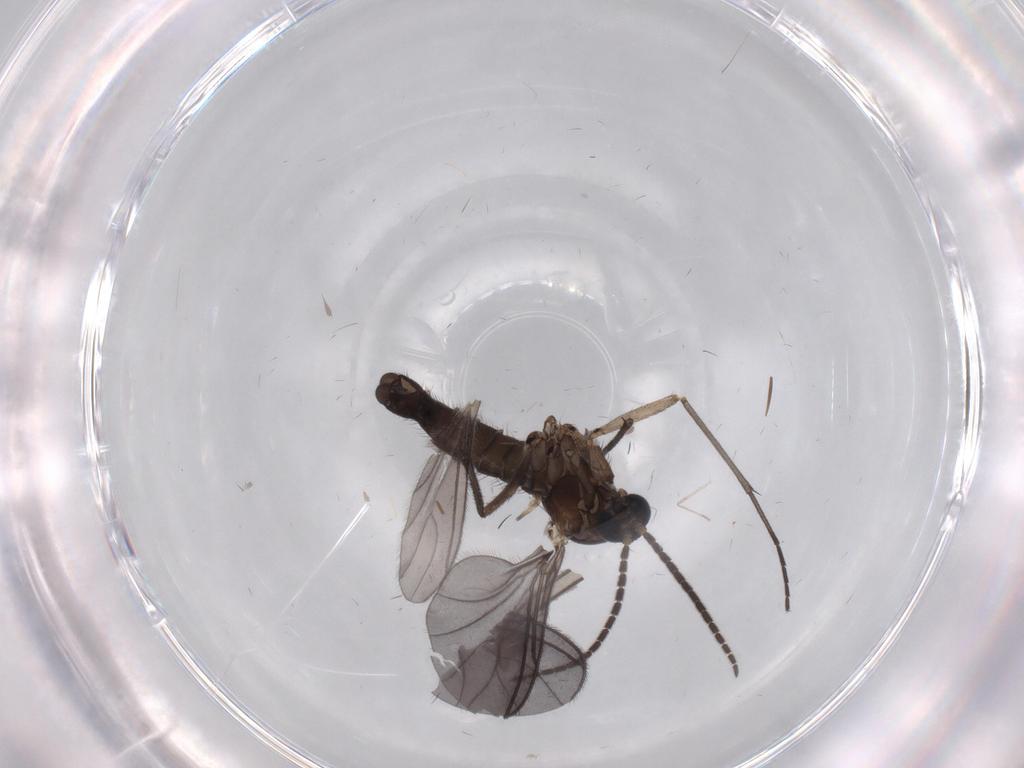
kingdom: Animalia
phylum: Arthropoda
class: Insecta
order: Diptera
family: Sciaridae
